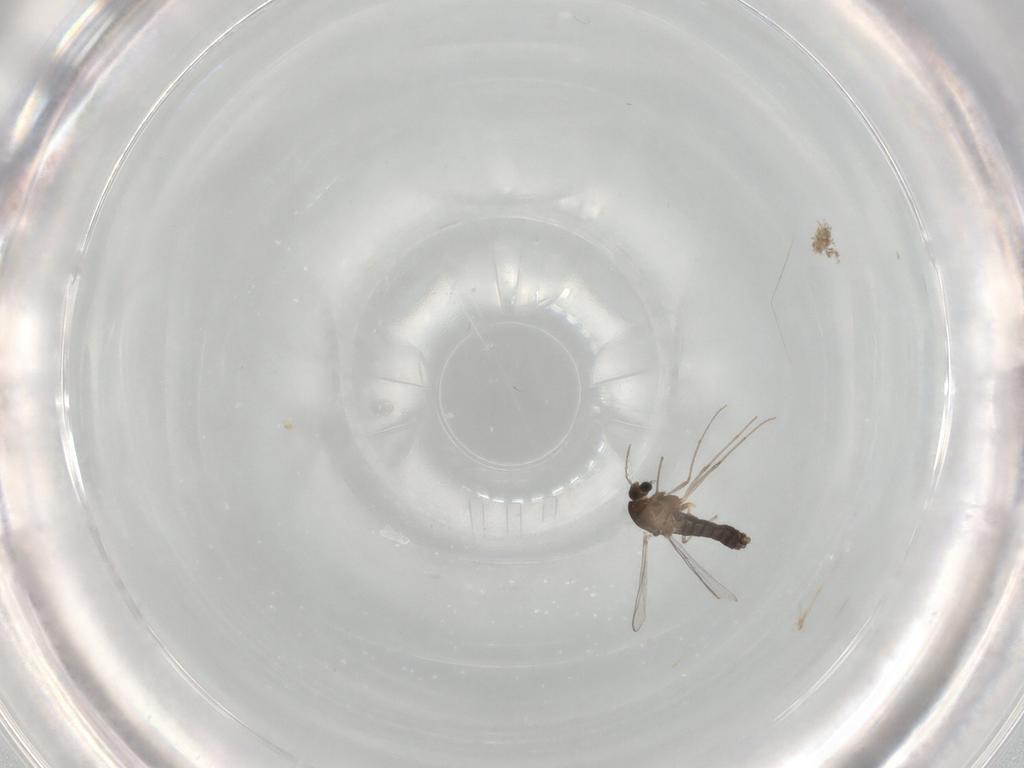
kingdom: Animalia
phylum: Arthropoda
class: Insecta
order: Diptera
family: Chironomidae
